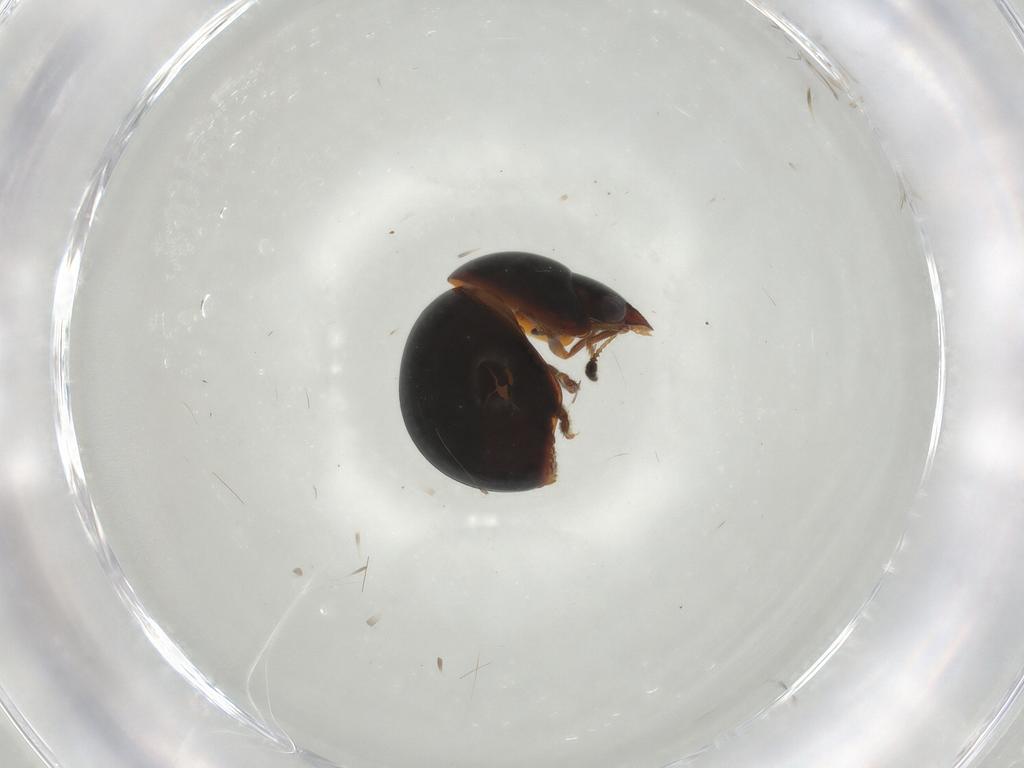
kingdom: Animalia
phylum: Arthropoda
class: Insecta
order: Coleoptera
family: Leiodidae
